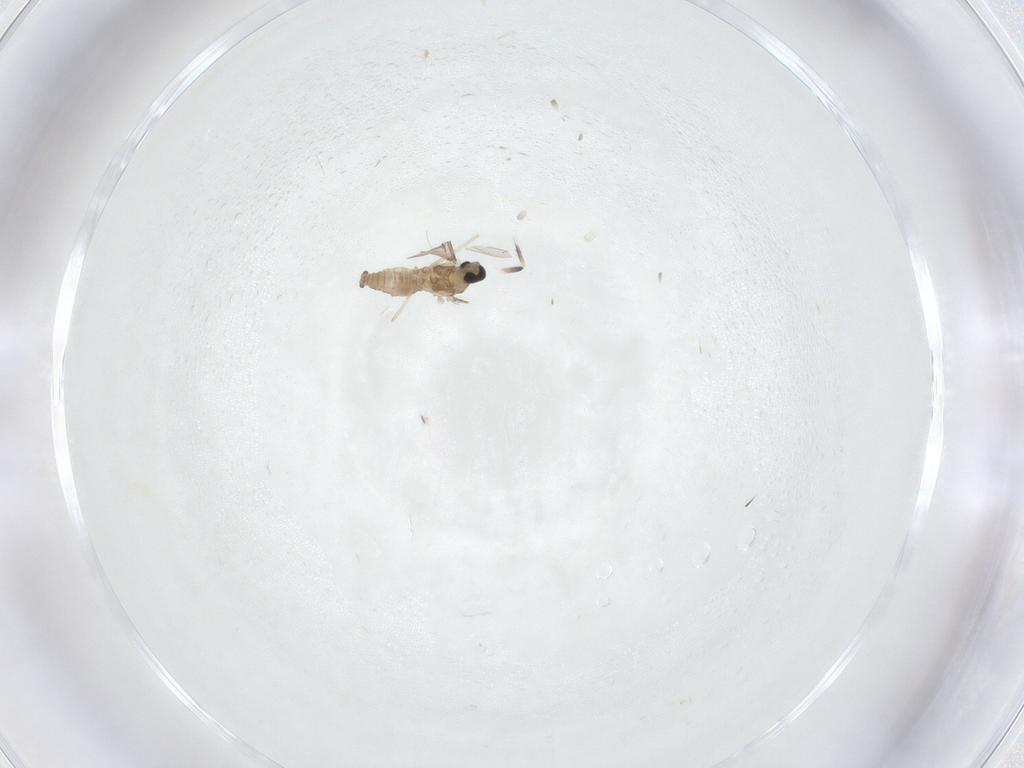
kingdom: Animalia
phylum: Arthropoda
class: Insecta
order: Diptera
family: Cecidomyiidae
